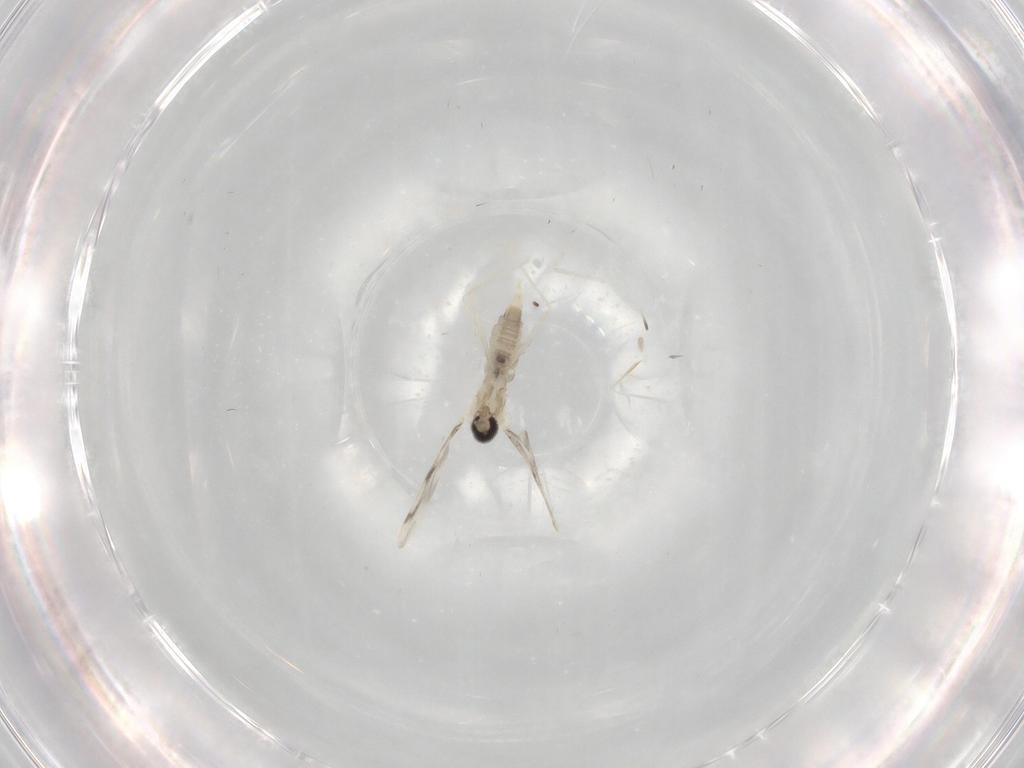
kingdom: Animalia
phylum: Arthropoda
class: Insecta
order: Diptera
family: Cecidomyiidae
